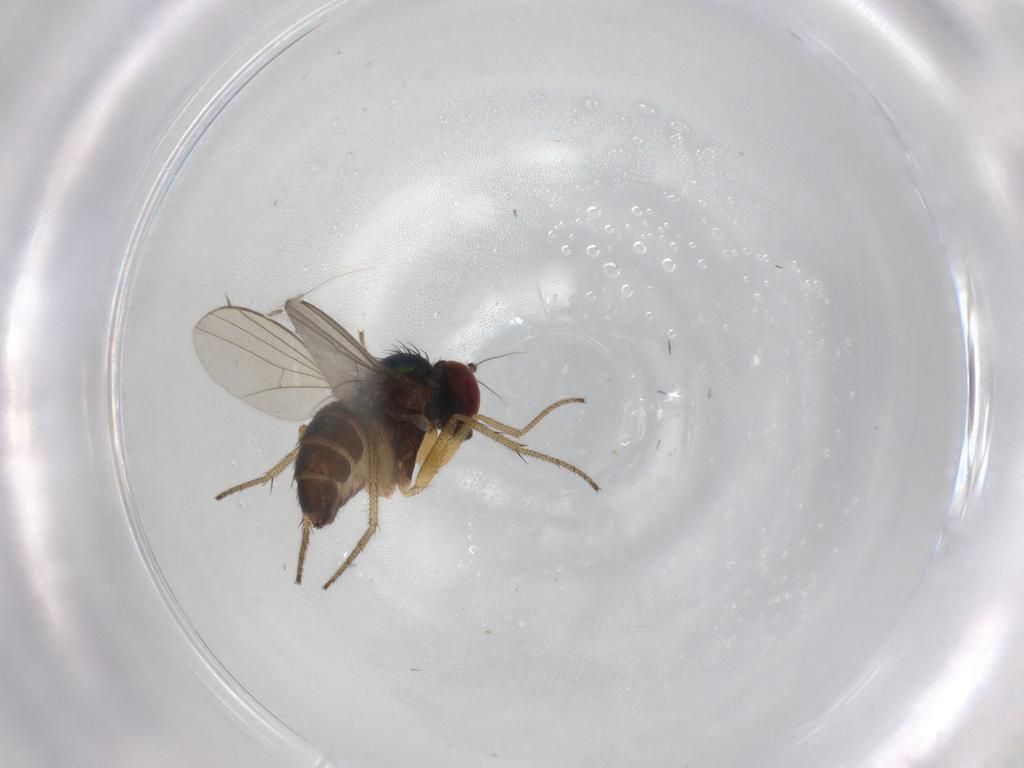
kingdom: Animalia
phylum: Arthropoda
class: Insecta
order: Diptera
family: Ceratopogonidae
